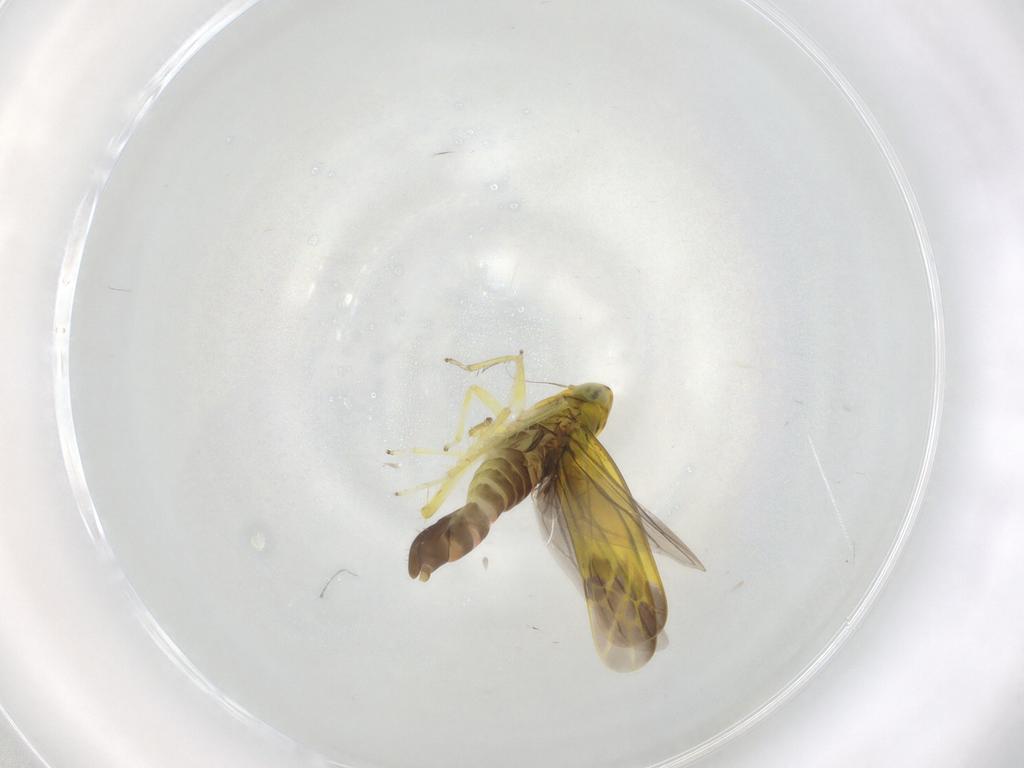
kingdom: Animalia
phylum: Arthropoda
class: Insecta
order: Hemiptera
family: Cicadellidae
